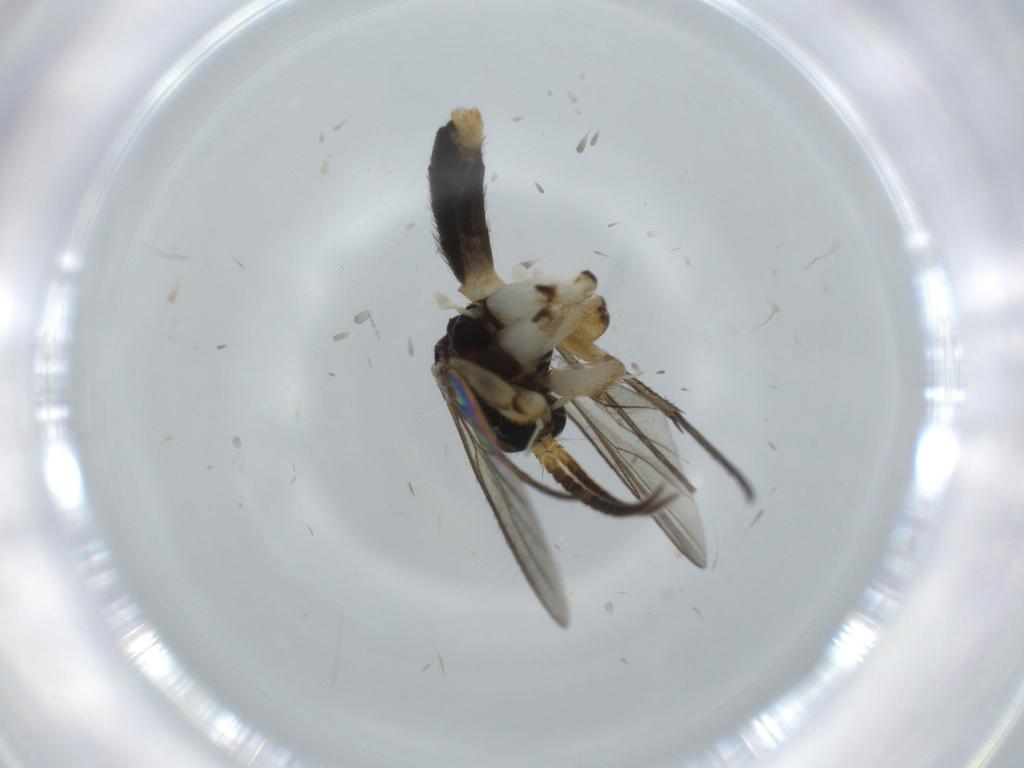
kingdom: Animalia
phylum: Arthropoda
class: Insecta
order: Diptera
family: Cecidomyiidae
